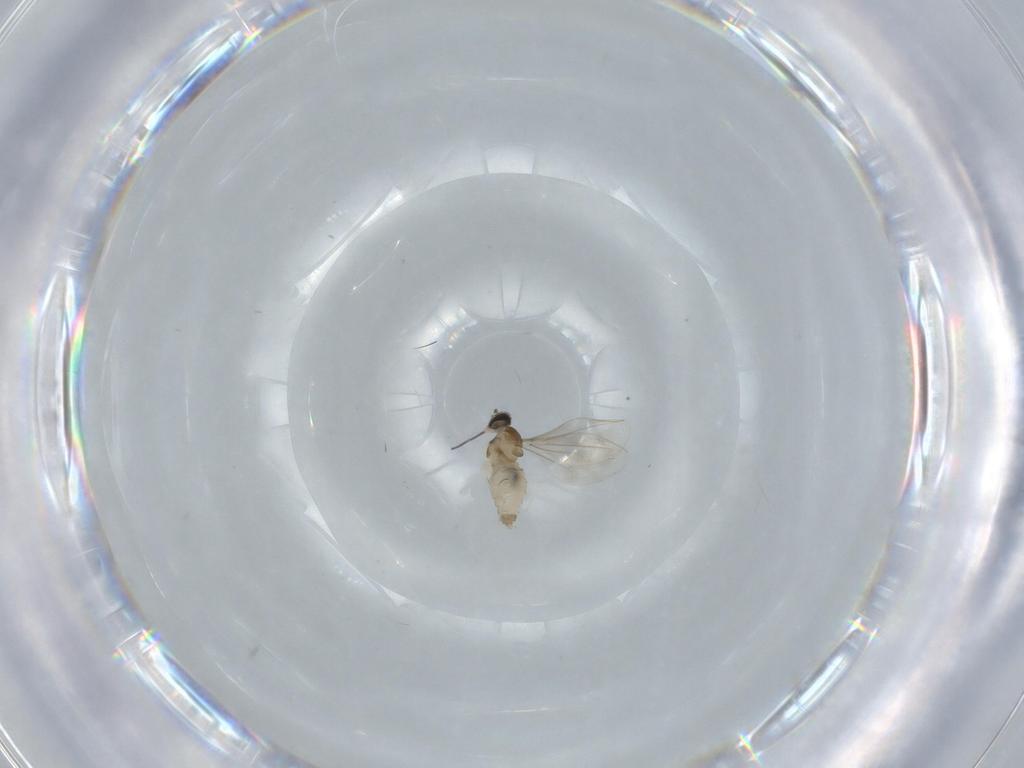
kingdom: Animalia
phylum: Arthropoda
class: Insecta
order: Diptera
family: Cecidomyiidae
